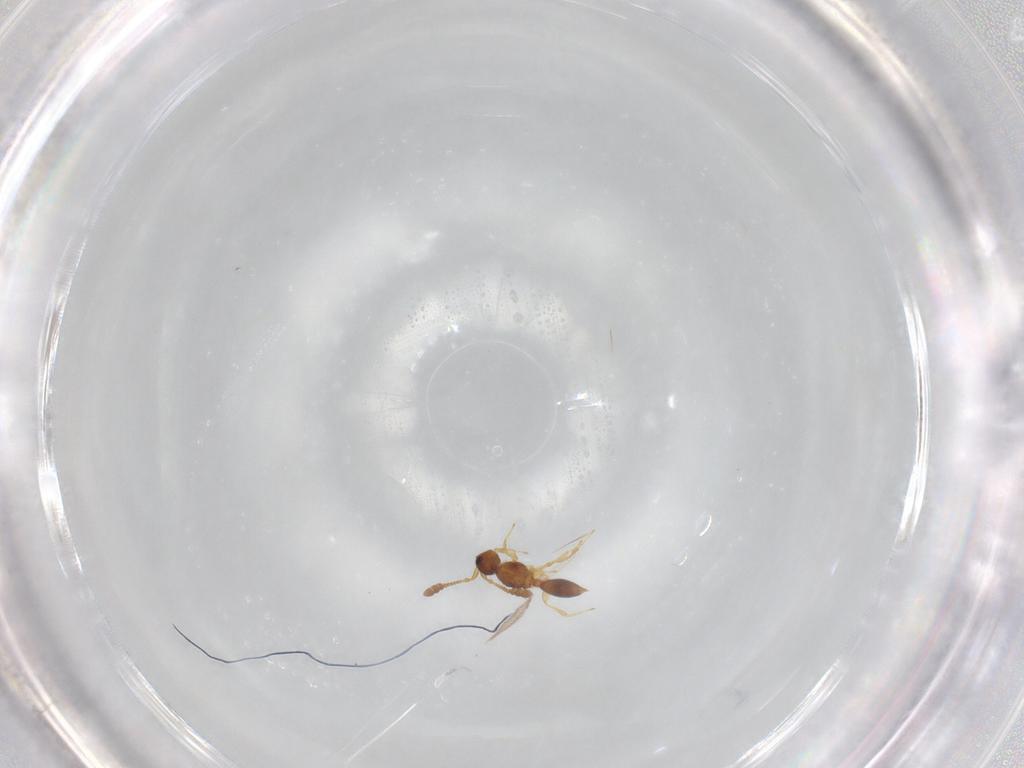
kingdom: Animalia
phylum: Arthropoda
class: Insecta
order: Hymenoptera
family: Diapriidae
